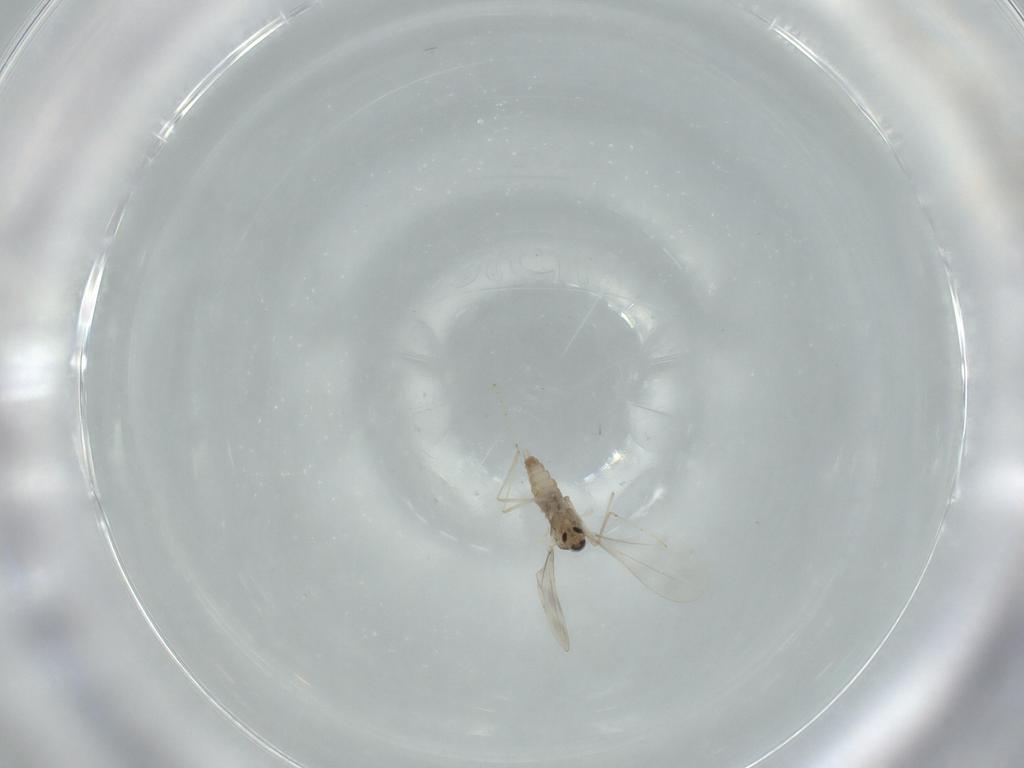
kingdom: Animalia
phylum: Arthropoda
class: Insecta
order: Diptera
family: Cecidomyiidae
